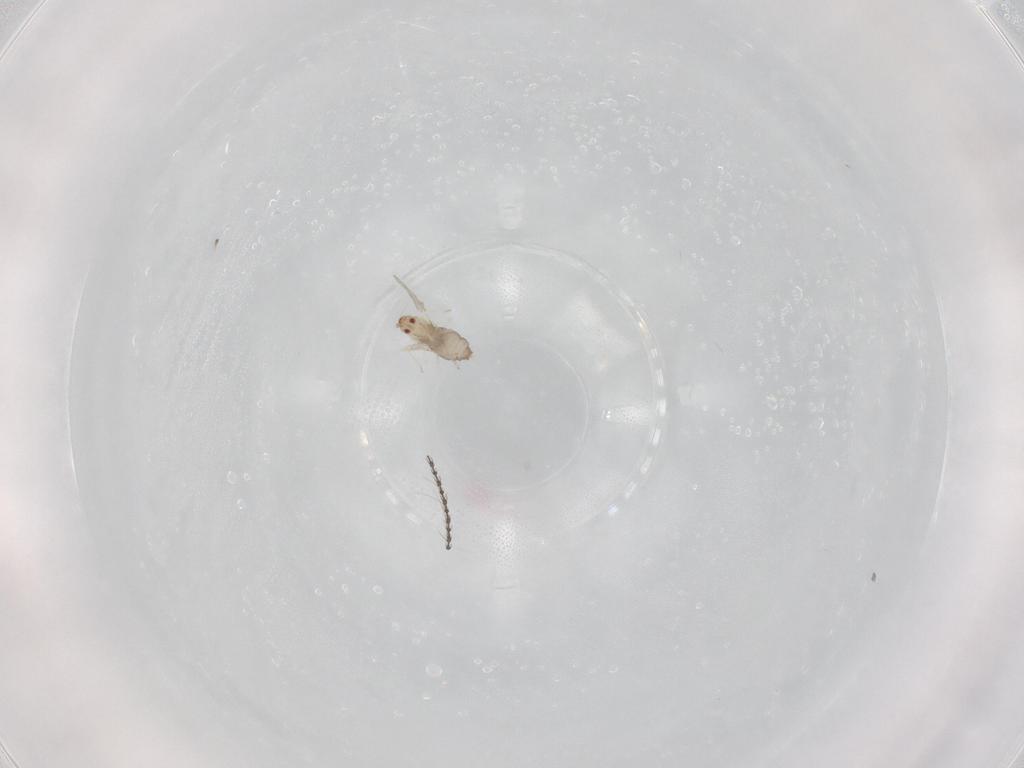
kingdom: Animalia
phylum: Arthropoda
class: Insecta
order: Diptera
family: Cecidomyiidae
